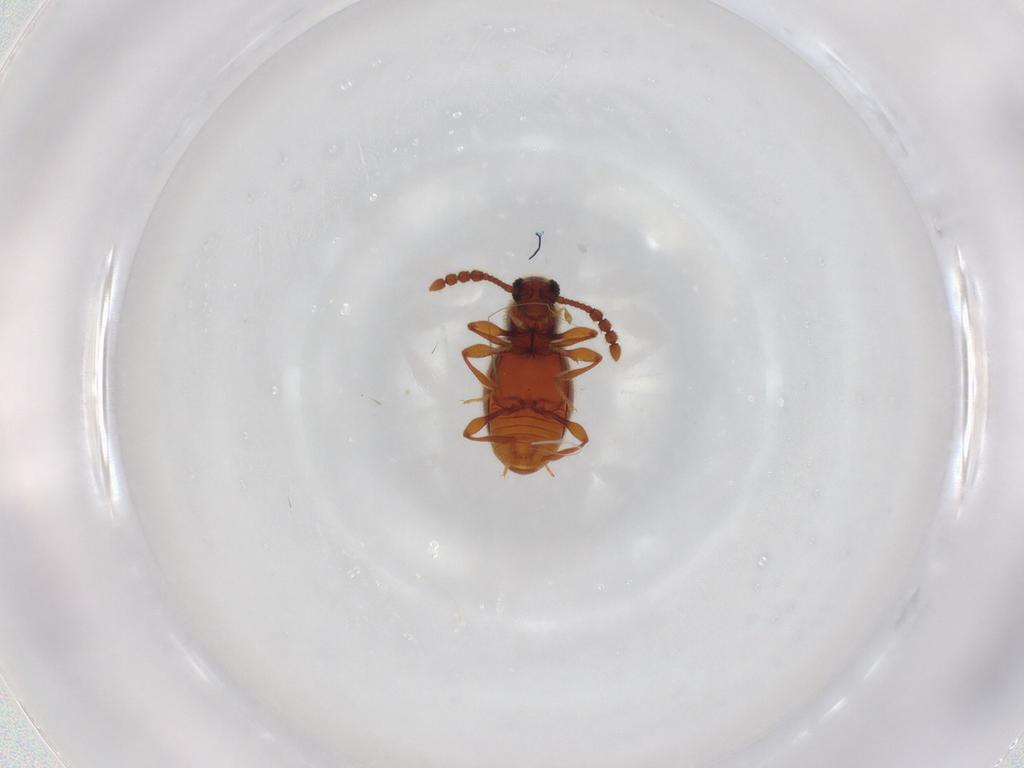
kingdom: Animalia
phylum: Arthropoda
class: Insecta
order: Coleoptera
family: Staphylinidae
